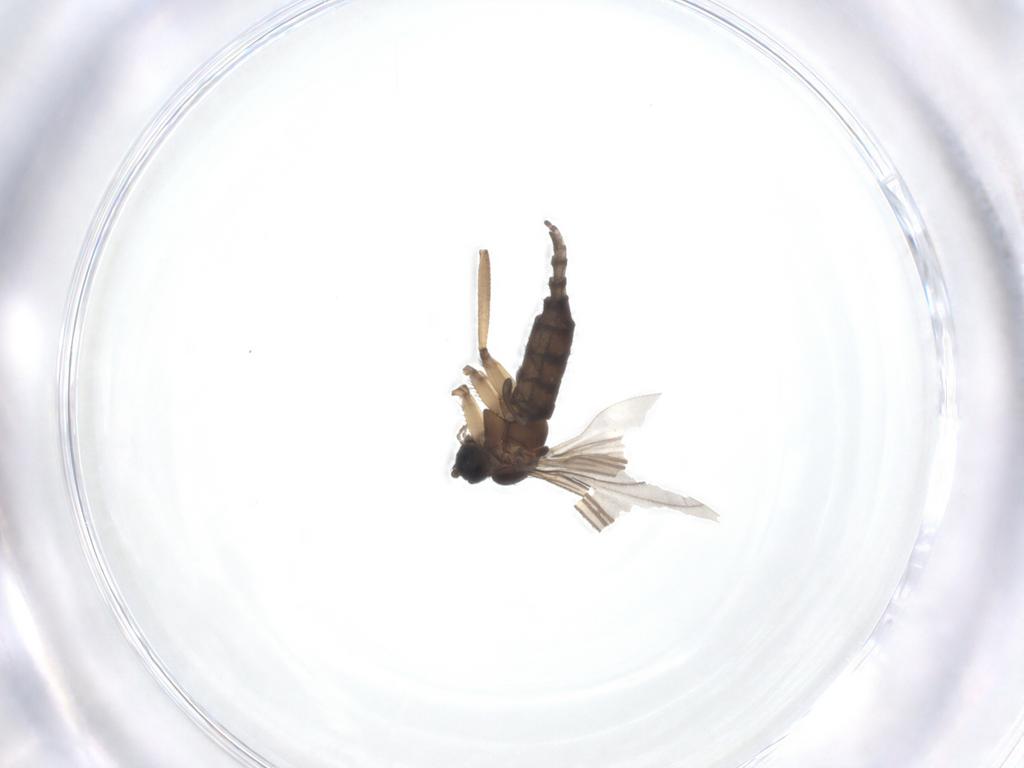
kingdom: Animalia
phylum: Arthropoda
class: Insecta
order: Diptera
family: Sciaridae
